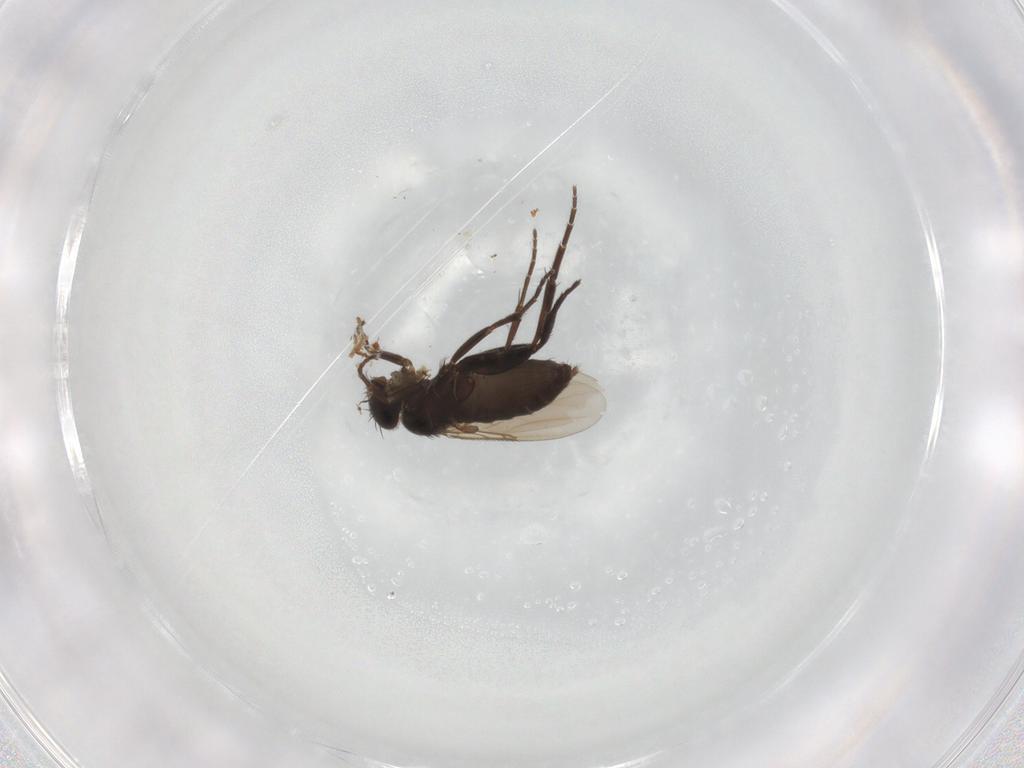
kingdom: Animalia
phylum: Arthropoda
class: Insecta
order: Diptera
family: Phoridae
